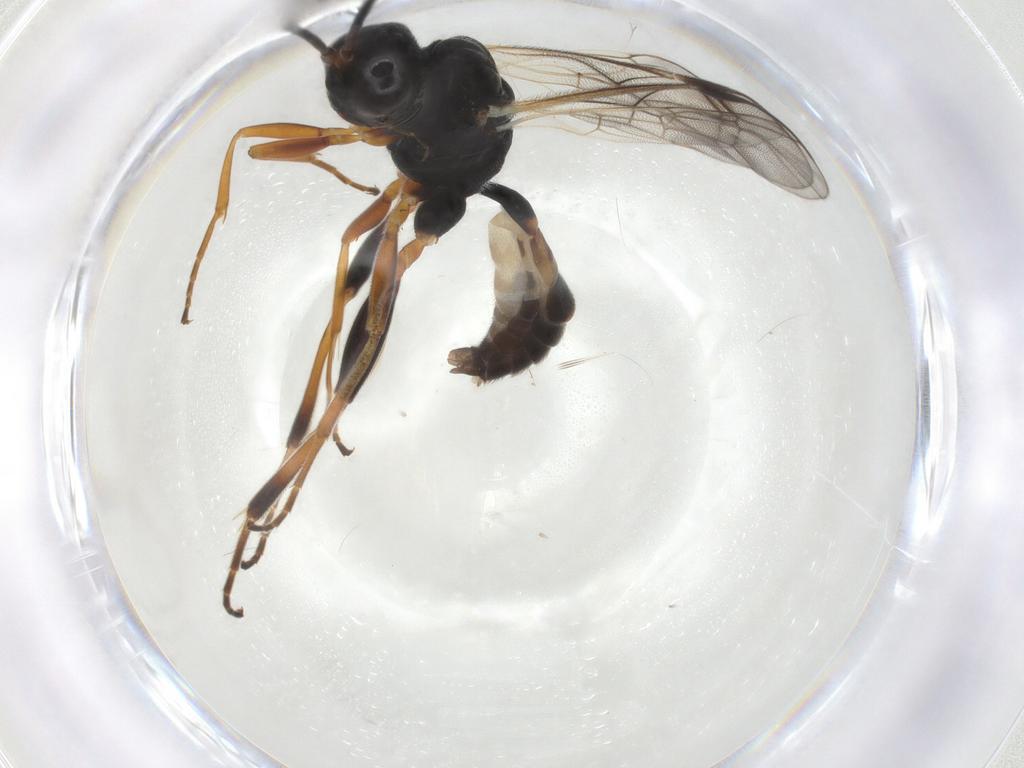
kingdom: Animalia
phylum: Arthropoda
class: Insecta
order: Hymenoptera
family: Ichneumonidae
